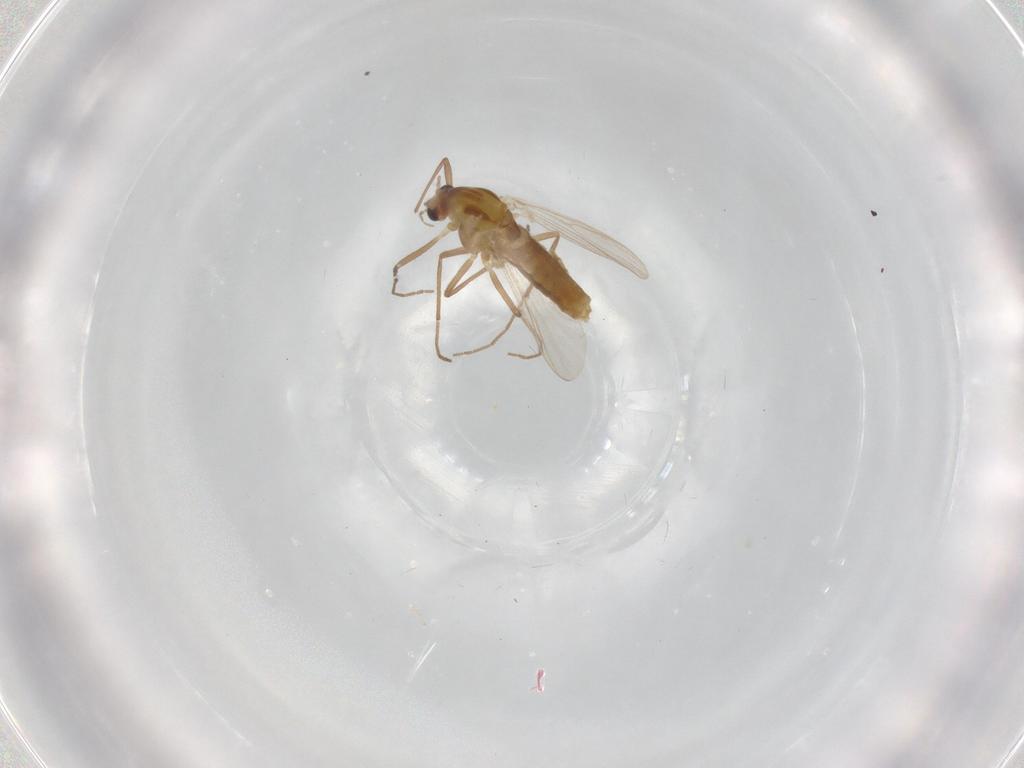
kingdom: Animalia
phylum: Arthropoda
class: Insecta
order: Diptera
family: Chironomidae
